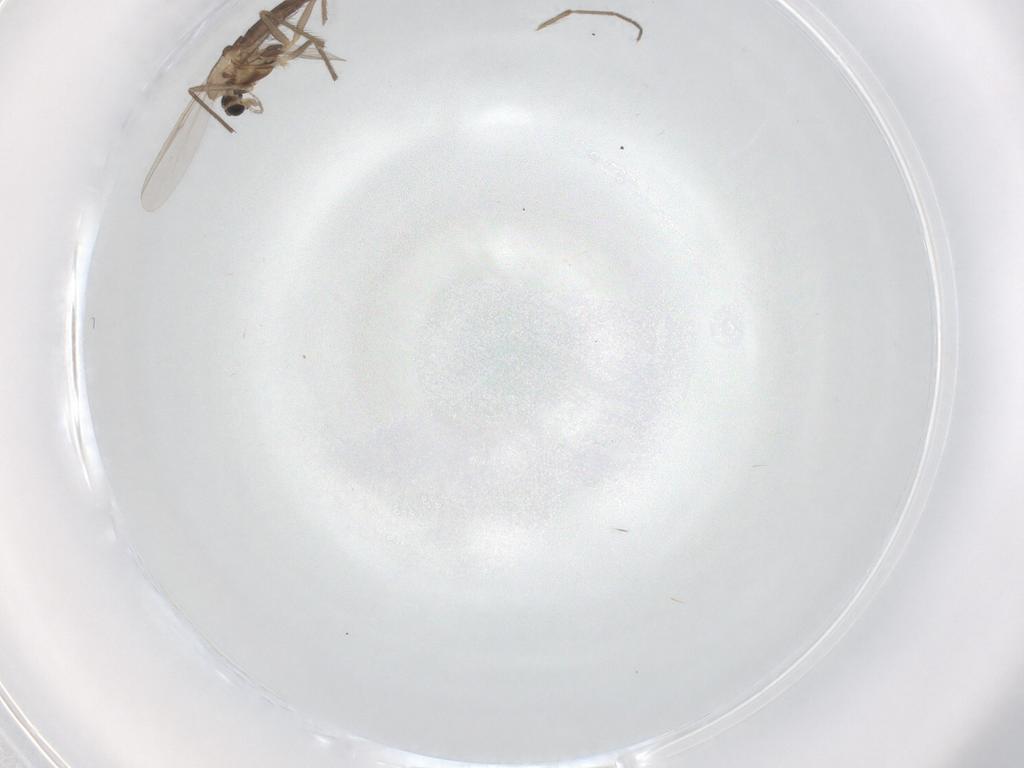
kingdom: Animalia
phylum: Arthropoda
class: Insecta
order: Diptera
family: Chironomidae
